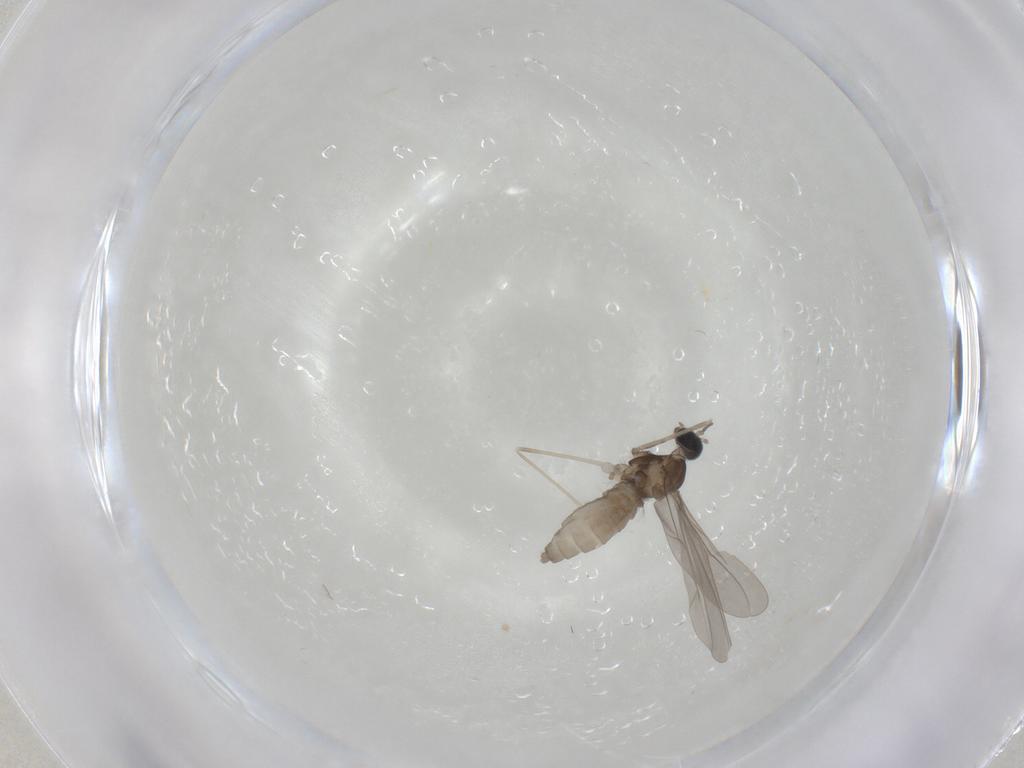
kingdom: Animalia
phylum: Arthropoda
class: Insecta
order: Diptera
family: Cecidomyiidae
